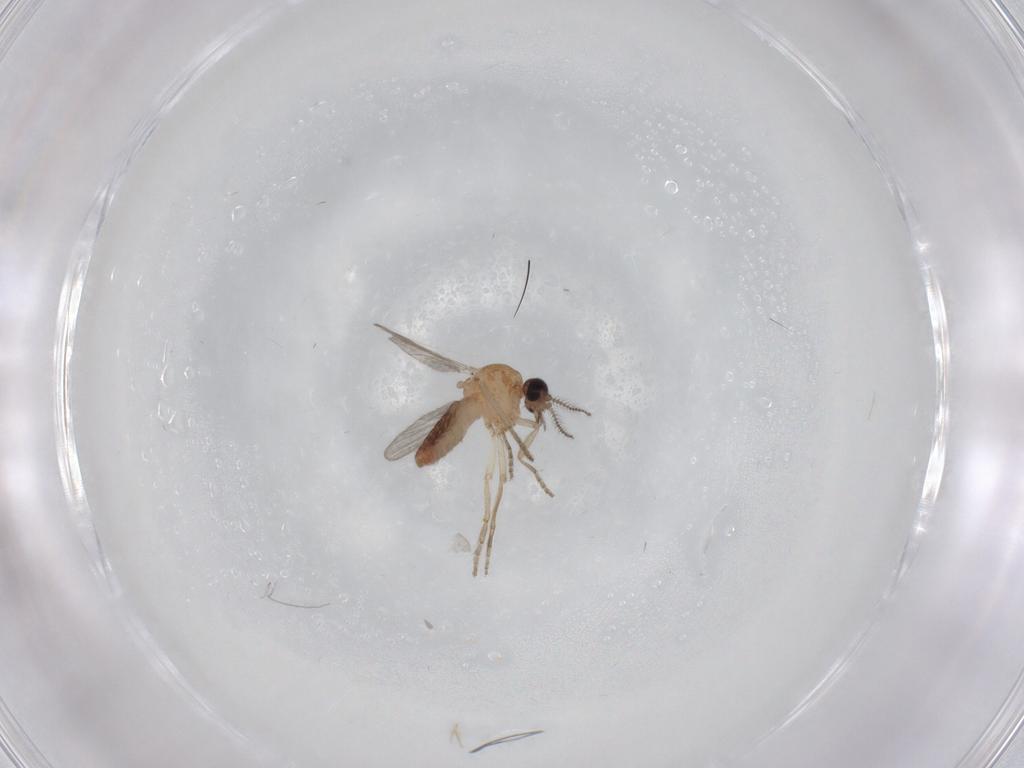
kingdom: Animalia
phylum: Arthropoda
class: Insecta
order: Diptera
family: Ceratopogonidae
